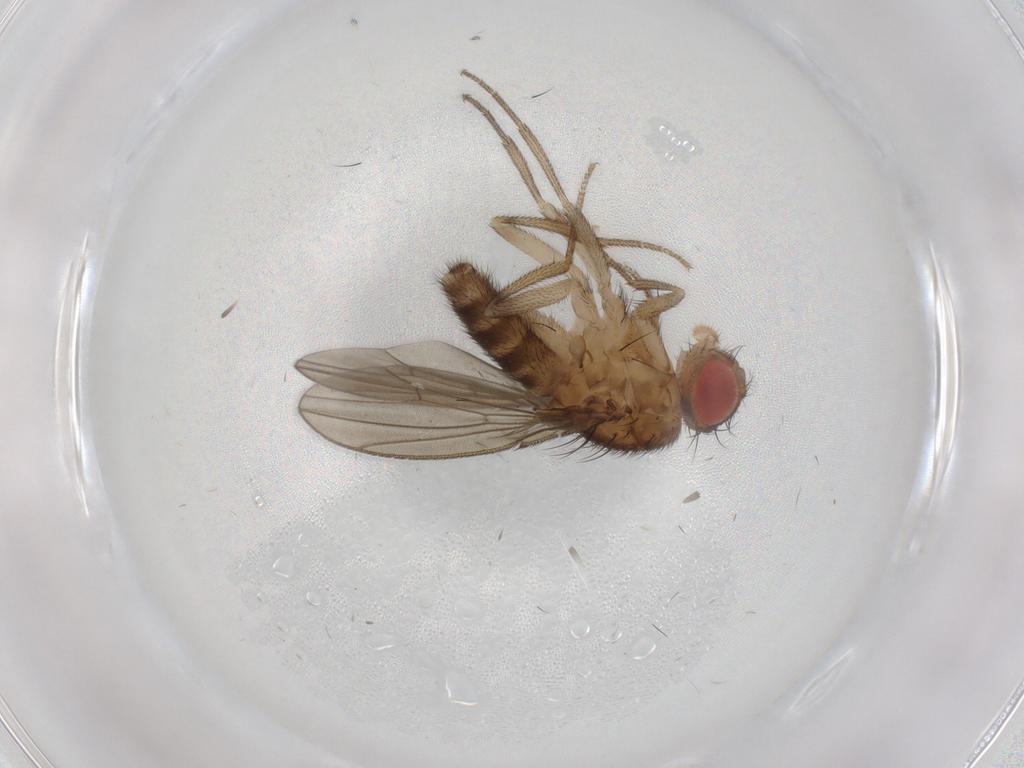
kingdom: Animalia
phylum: Arthropoda
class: Insecta
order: Diptera
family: Drosophilidae
